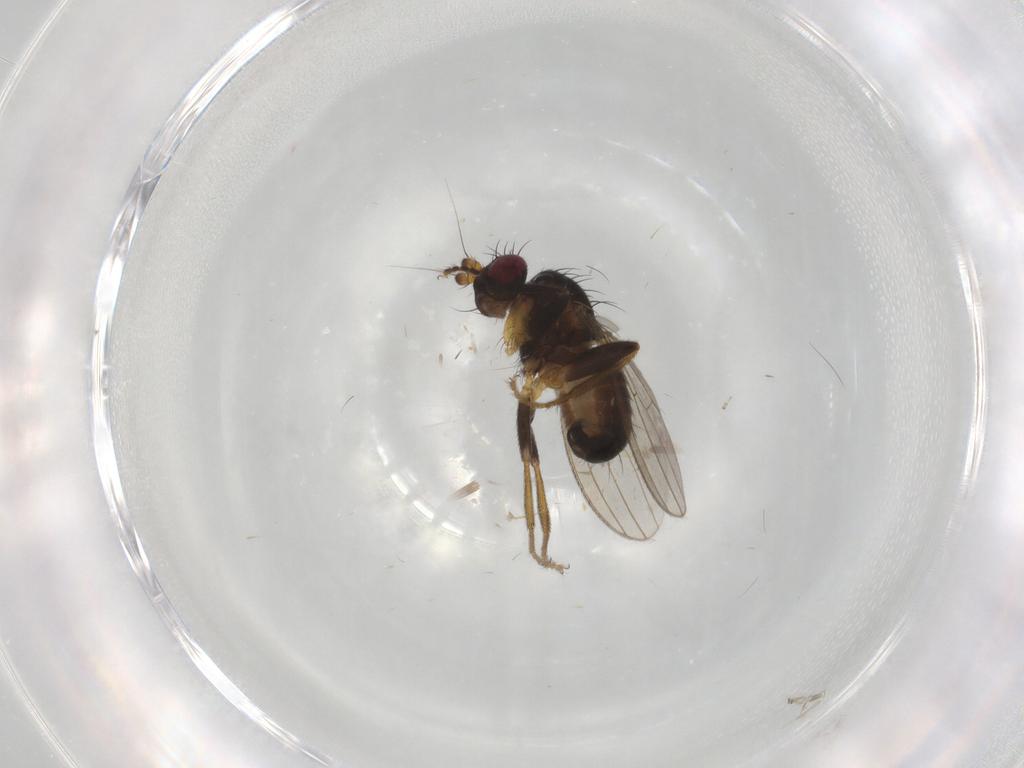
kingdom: Animalia
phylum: Arthropoda
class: Insecta
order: Diptera
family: Cypselosomatidae
